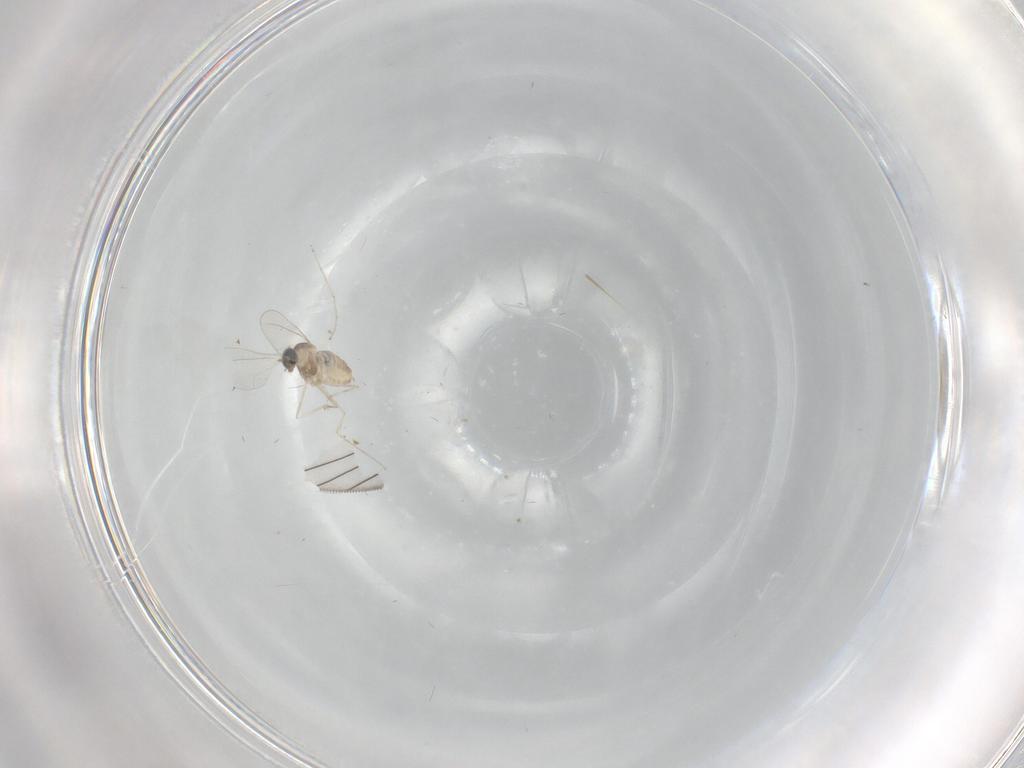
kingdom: Animalia
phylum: Arthropoda
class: Insecta
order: Diptera
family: Cecidomyiidae
